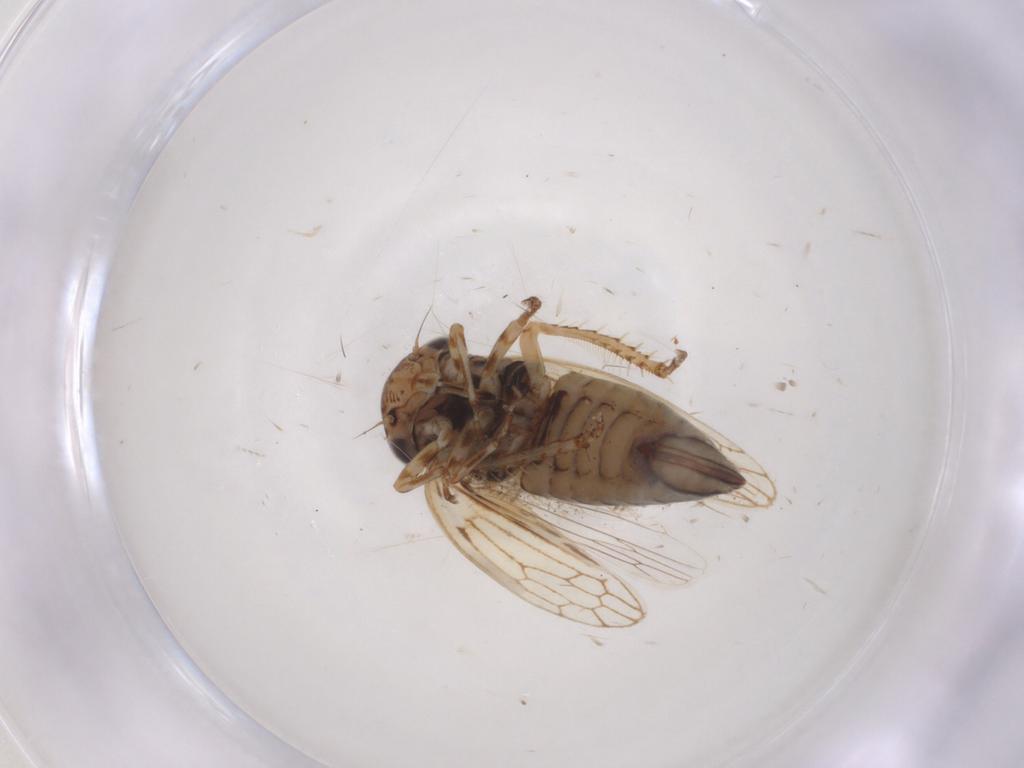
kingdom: Animalia
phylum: Arthropoda
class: Insecta
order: Hemiptera
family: Cicadellidae
